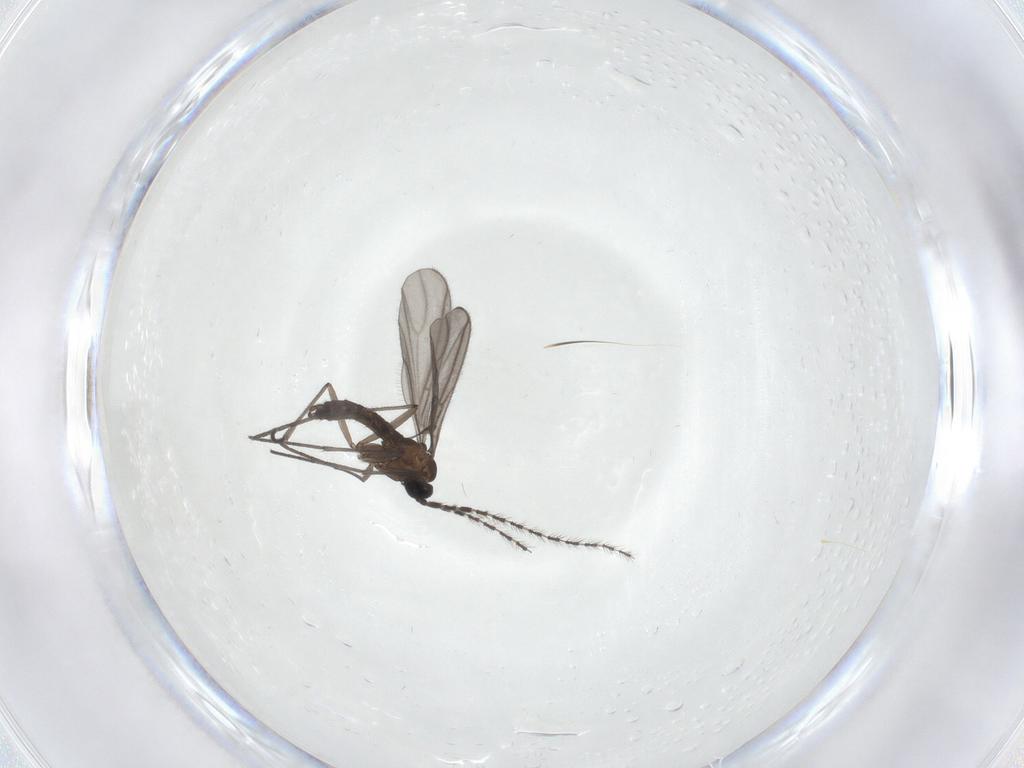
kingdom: Animalia
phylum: Arthropoda
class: Insecta
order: Diptera
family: Sciaridae
